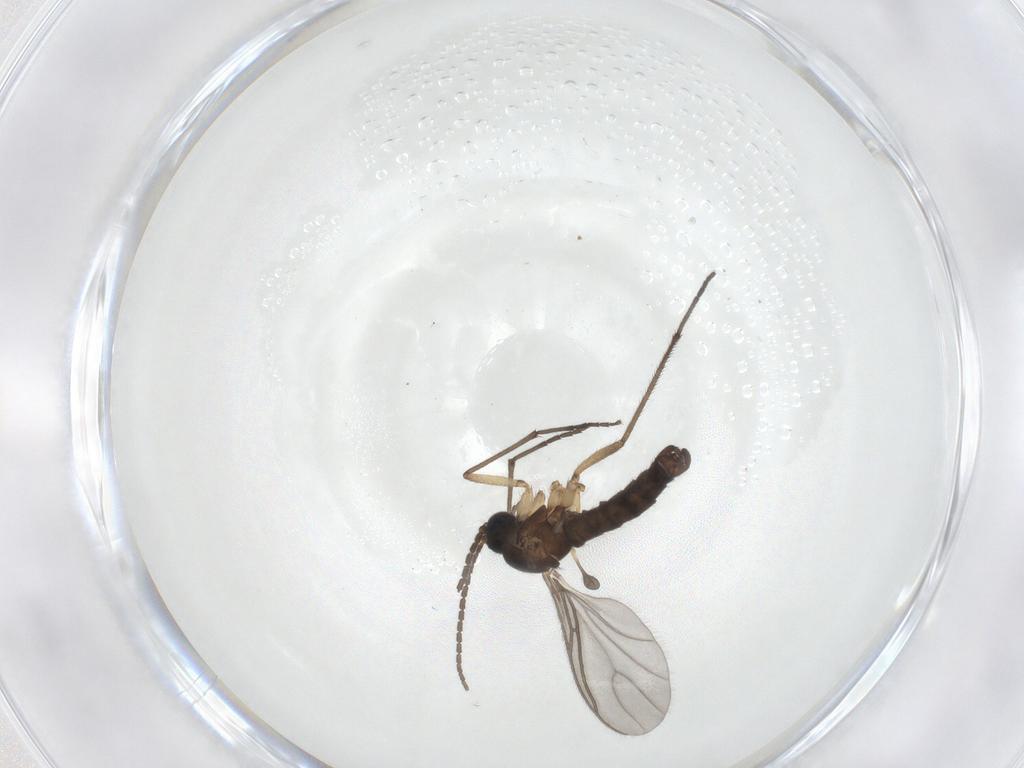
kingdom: Animalia
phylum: Arthropoda
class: Insecta
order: Diptera
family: Sciaridae
